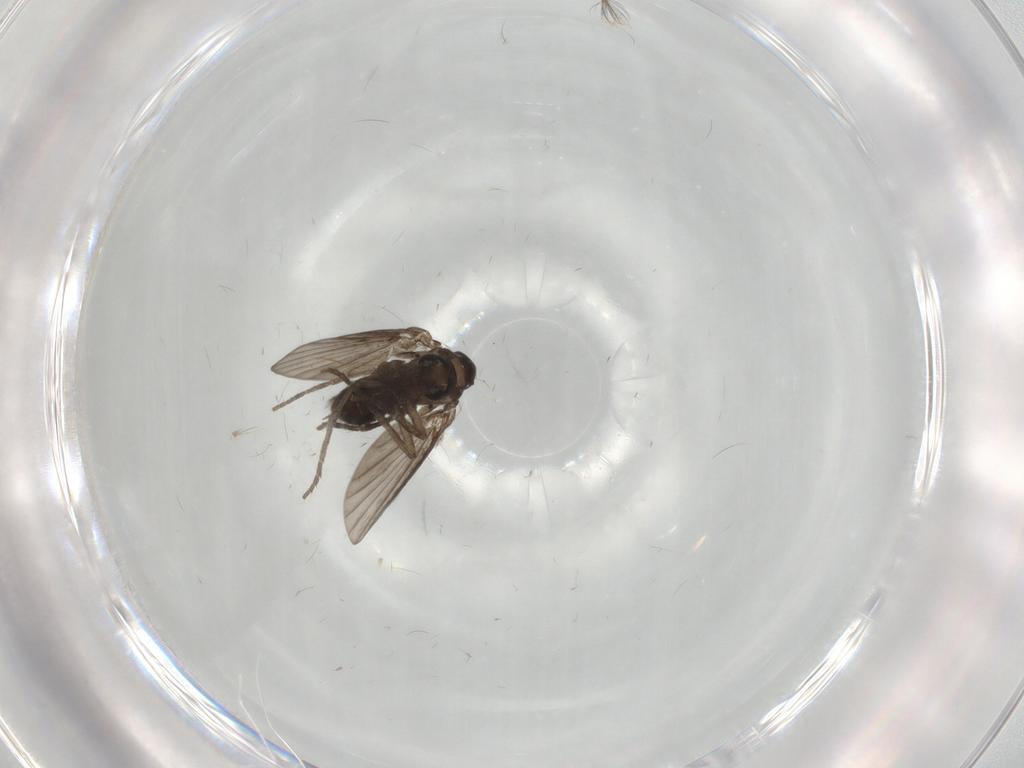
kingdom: Animalia
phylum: Arthropoda
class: Insecta
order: Diptera
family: Psychodidae
